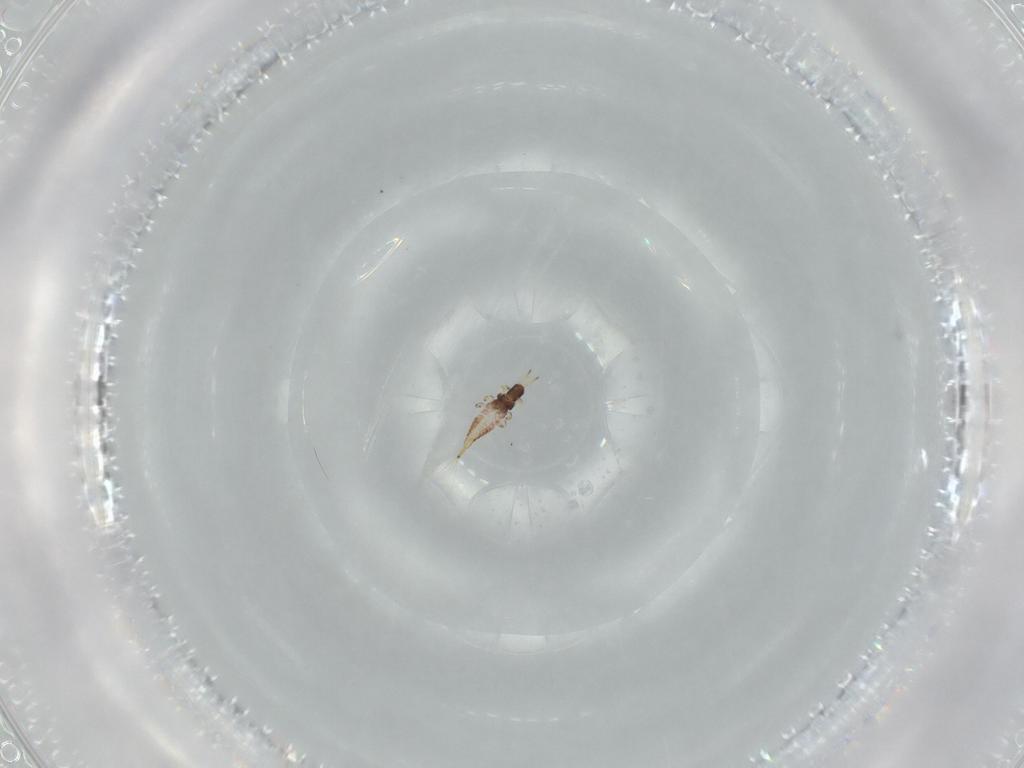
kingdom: Animalia
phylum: Arthropoda
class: Insecta
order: Thysanoptera
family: Phlaeothripidae
